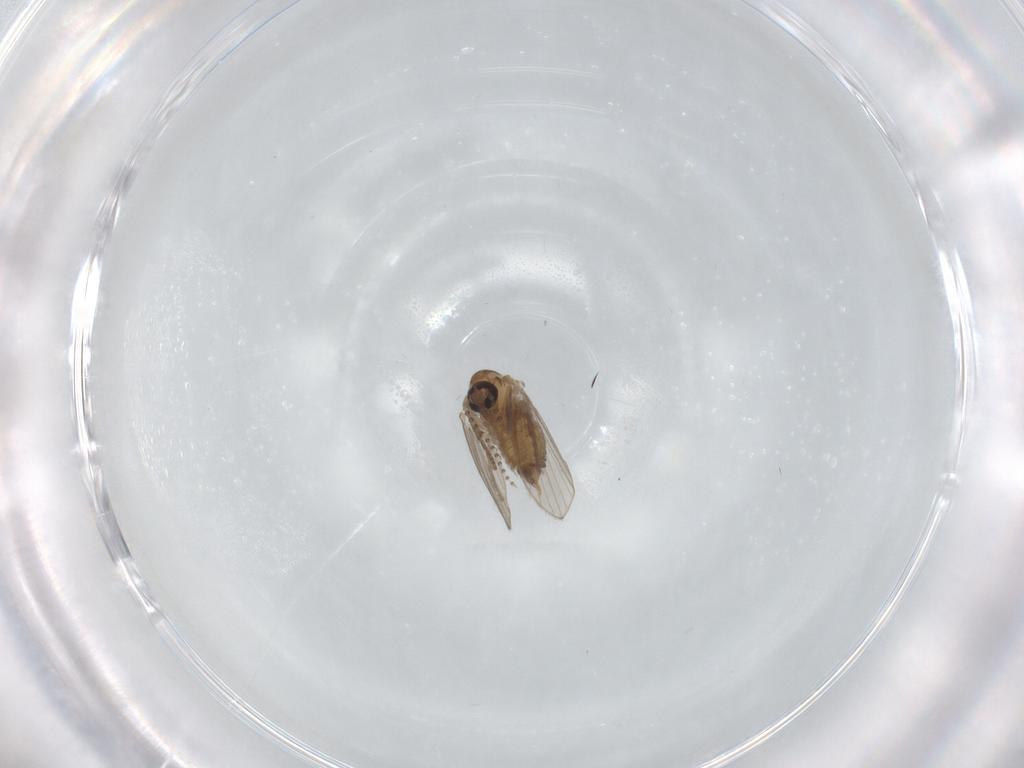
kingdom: Animalia
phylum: Arthropoda
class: Insecta
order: Diptera
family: Psychodidae
